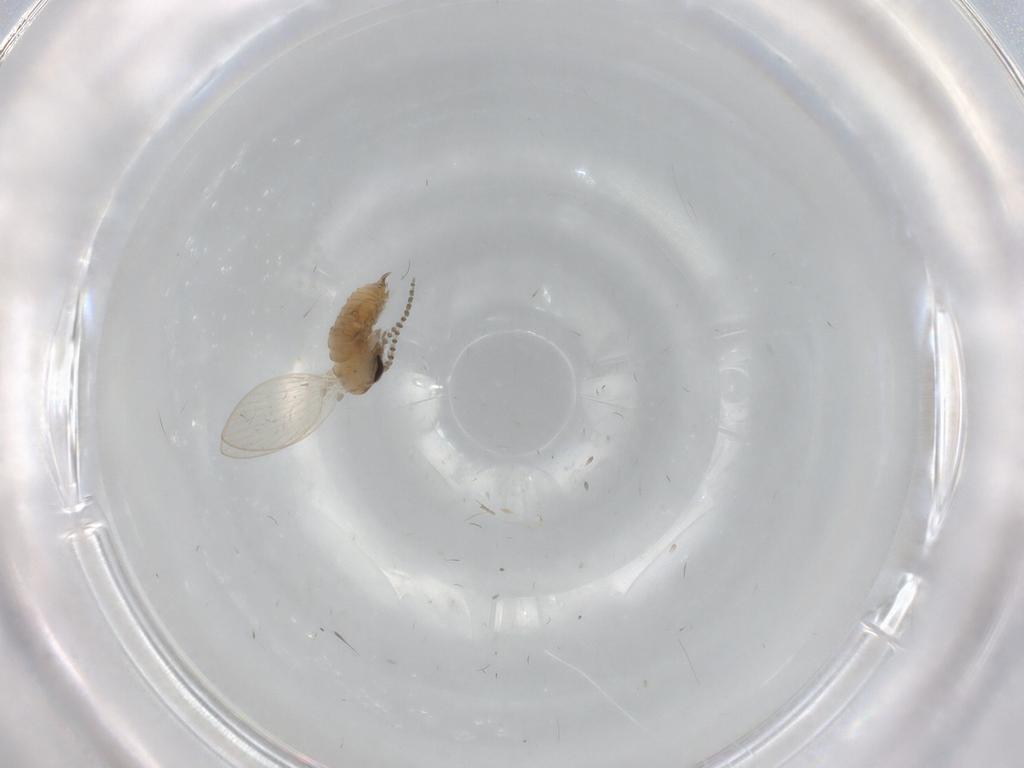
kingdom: Animalia
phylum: Arthropoda
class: Insecta
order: Diptera
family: Psychodidae
